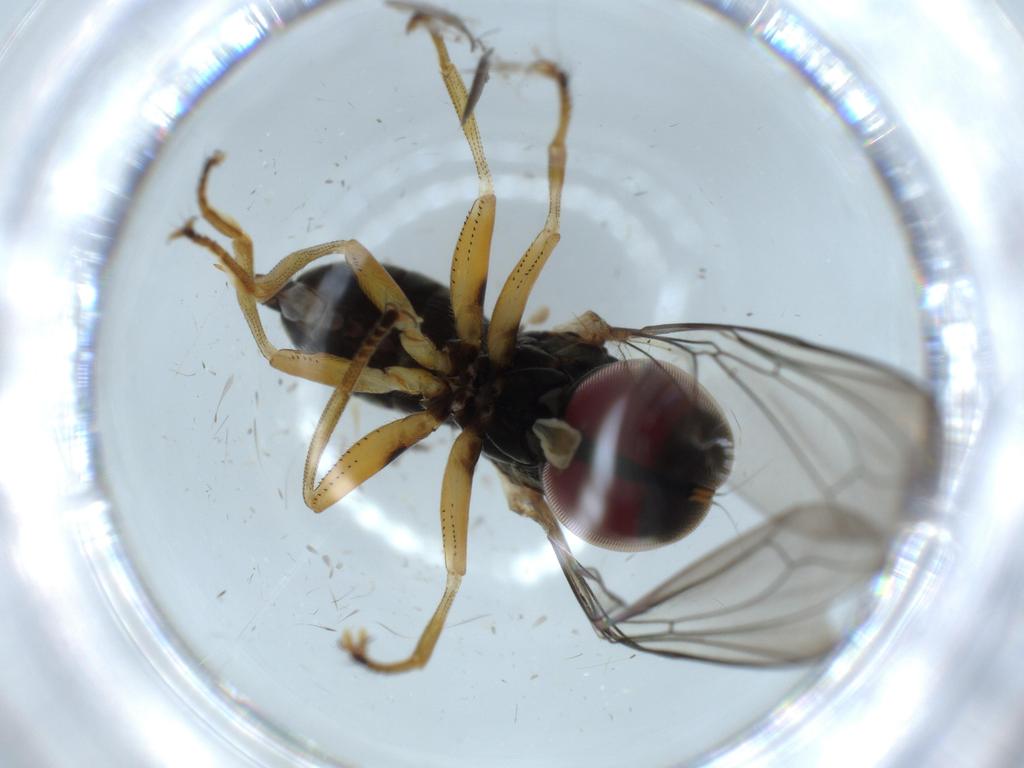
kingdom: Animalia
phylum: Arthropoda
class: Insecta
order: Diptera
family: Sciaridae
